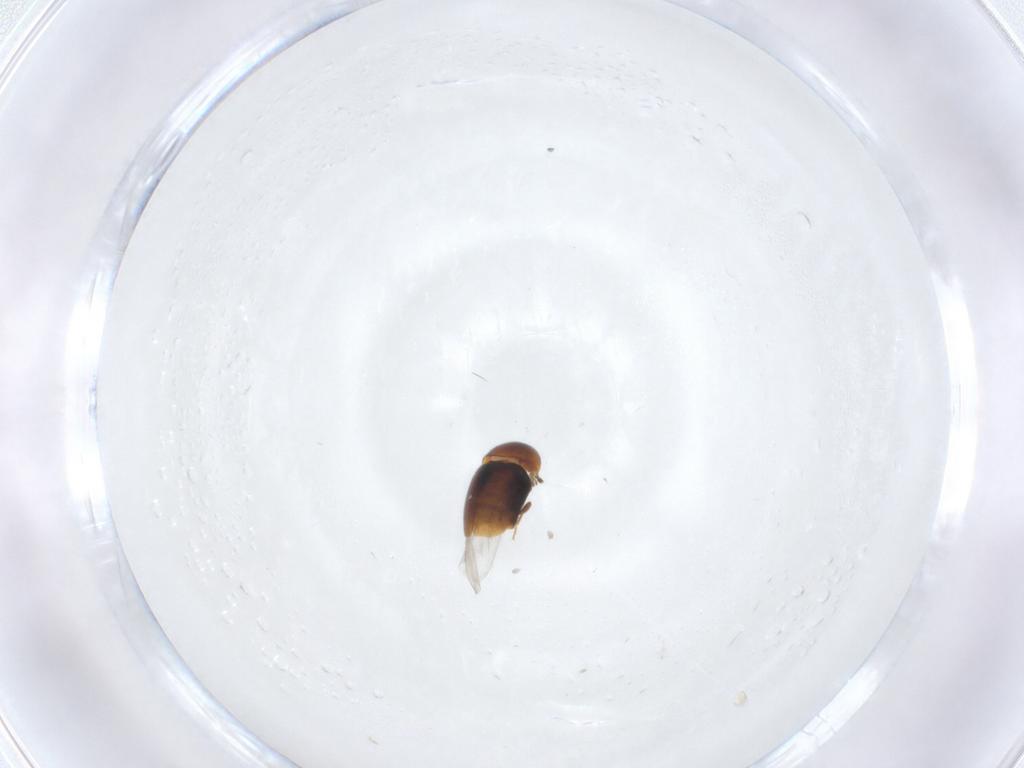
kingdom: Animalia
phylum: Arthropoda
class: Insecta
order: Coleoptera
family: Corylophidae
